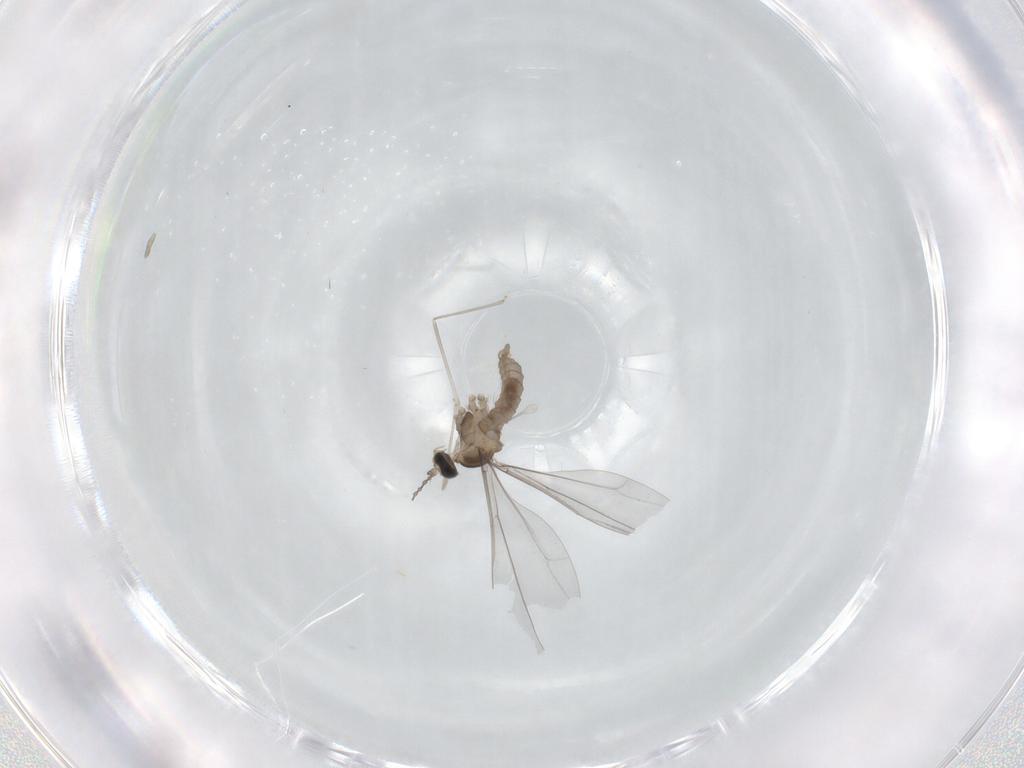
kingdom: Animalia
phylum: Arthropoda
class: Insecta
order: Diptera
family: Cecidomyiidae
